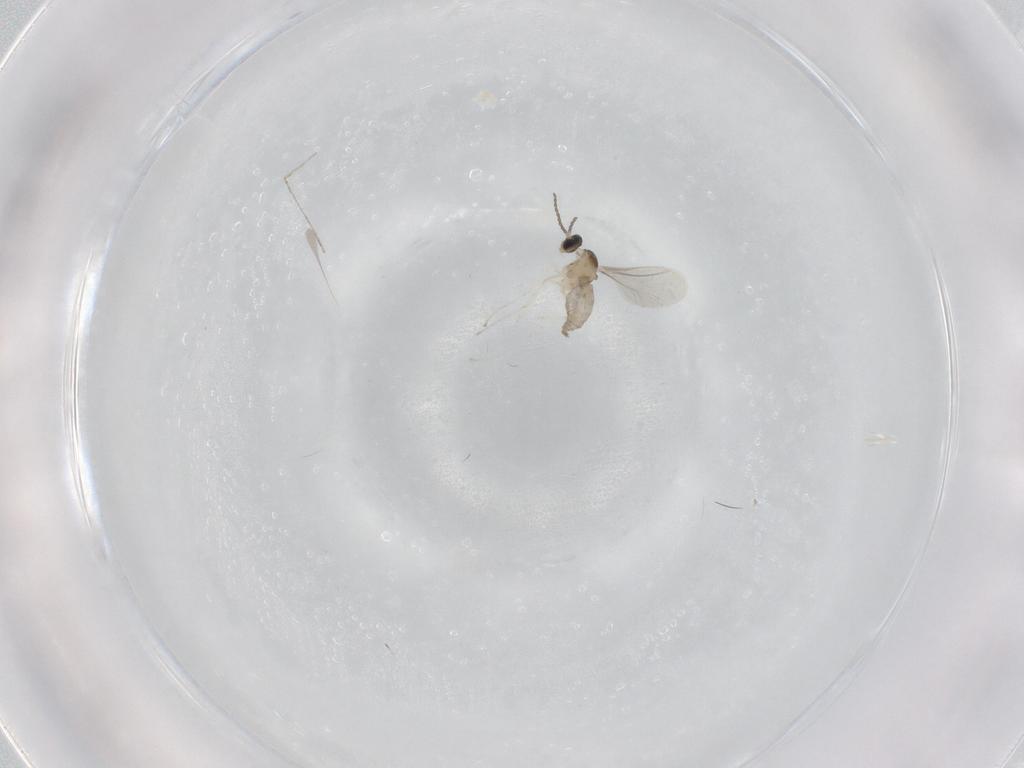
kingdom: Animalia
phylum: Arthropoda
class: Insecta
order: Diptera
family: Cecidomyiidae
